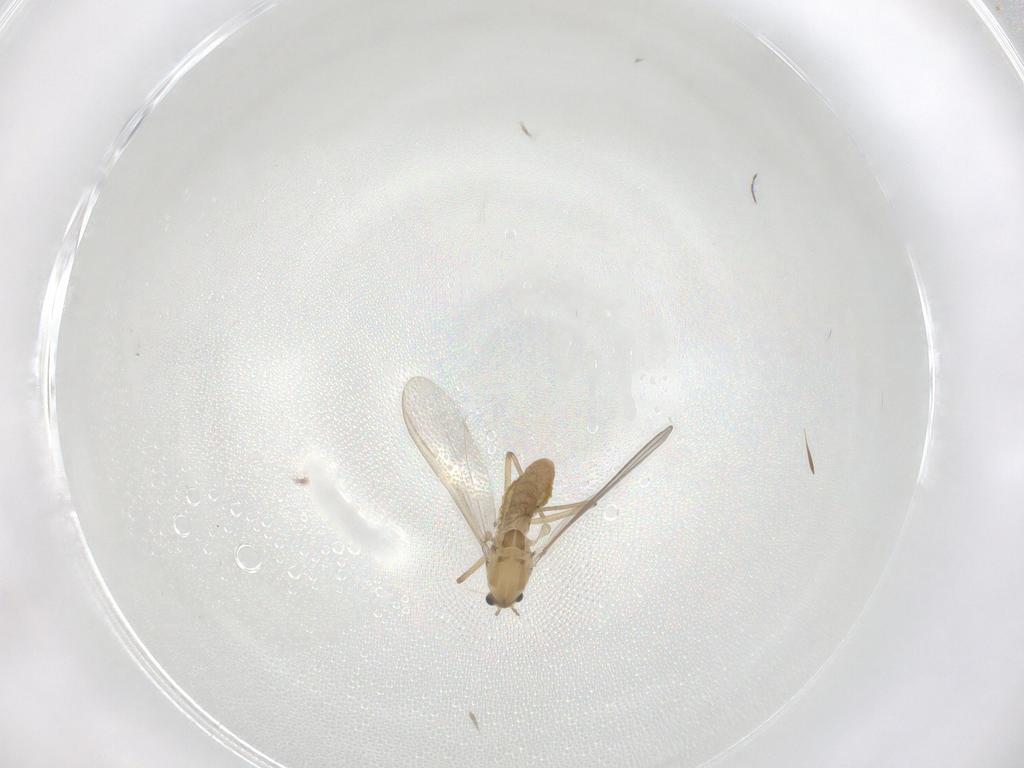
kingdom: Animalia
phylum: Arthropoda
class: Insecta
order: Diptera
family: Chironomidae
